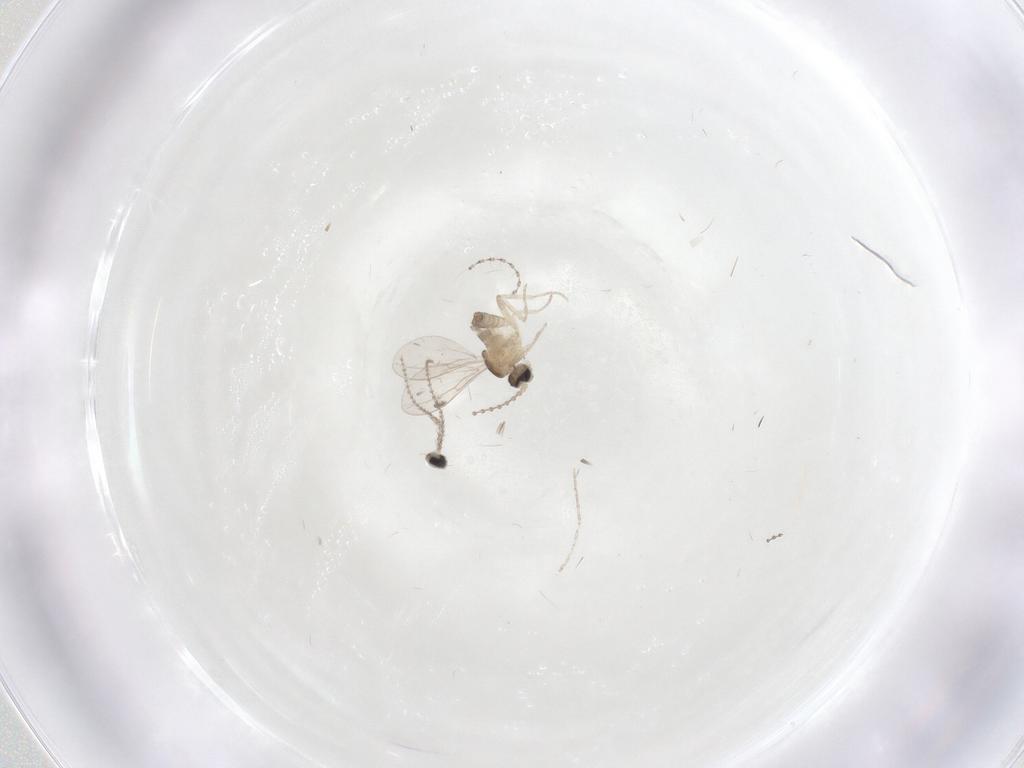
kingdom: Animalia
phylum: Arthropoda
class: Insecta
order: Diptera
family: Cecidomyiidae
